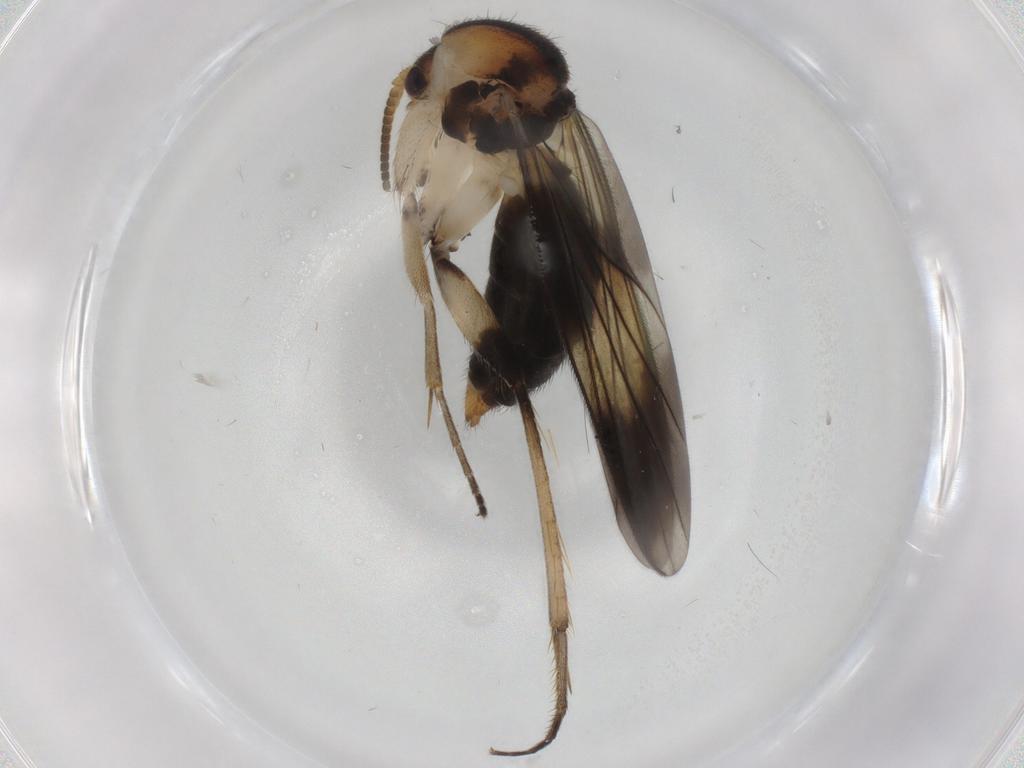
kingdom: Animalia
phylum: Arthropoda
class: Insecta
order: Diptera
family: Mycetophilidae
